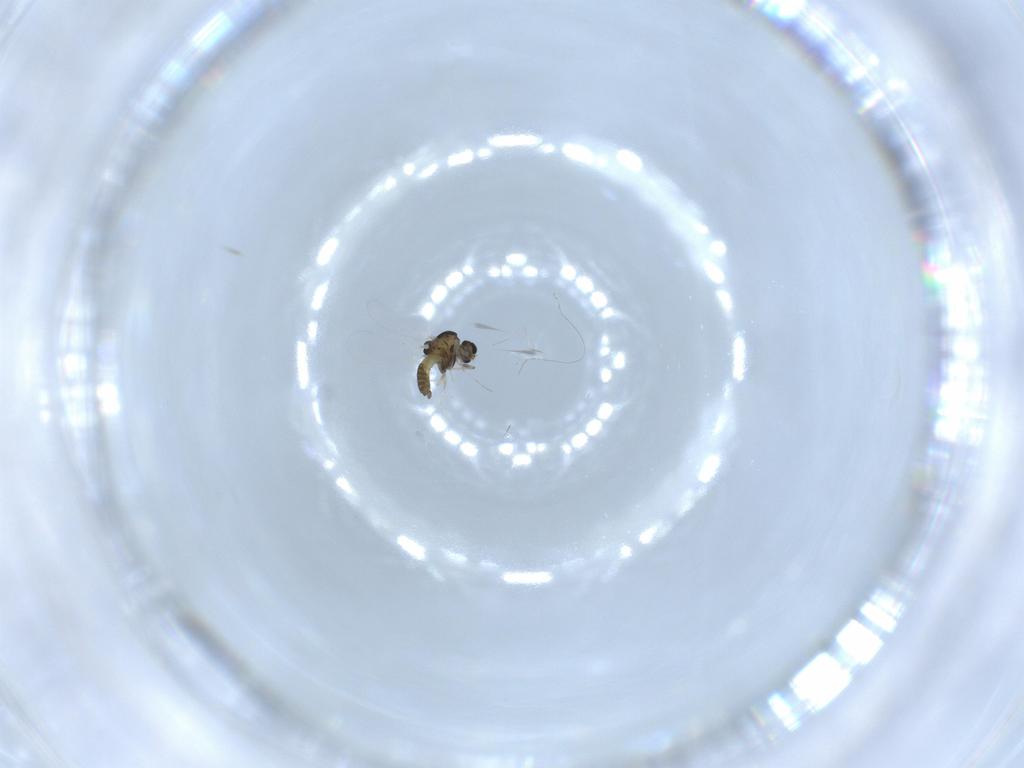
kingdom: Animalia
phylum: Arthropoda
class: Insecta
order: Diptera
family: Chironomidae
